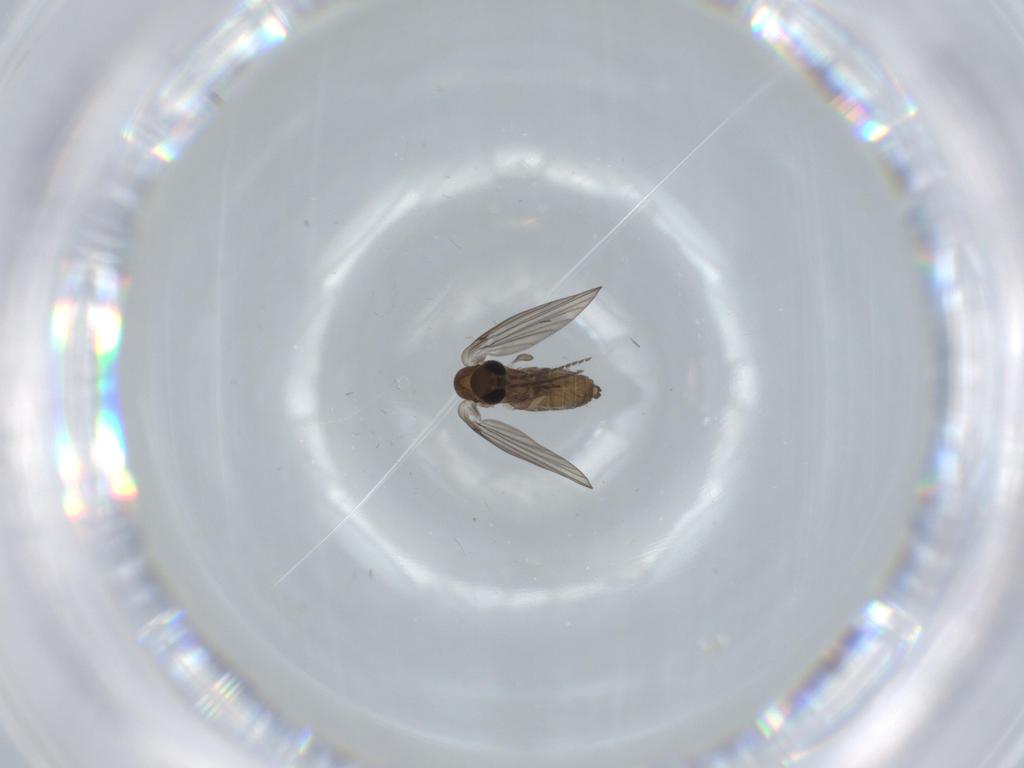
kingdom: Animalia
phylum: Arthropoda
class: Insecta
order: Diptera
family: Psychodidae
